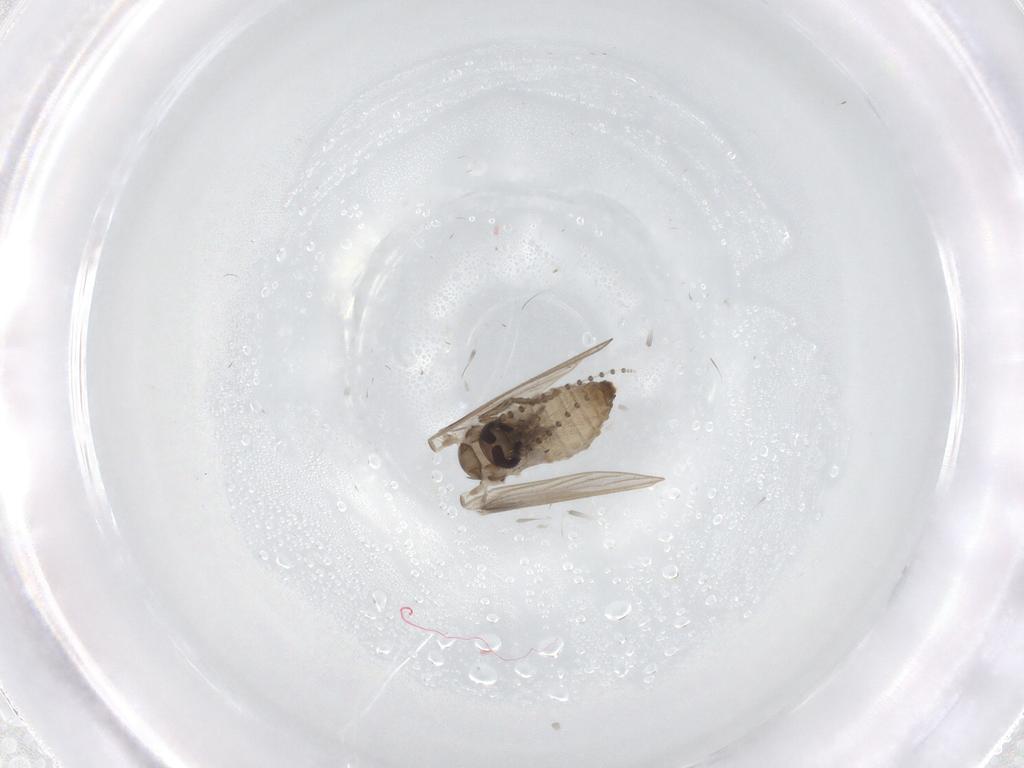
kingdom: Animalia
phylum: Arthropoda
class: Insecta
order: Diptera
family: Psychodidae
